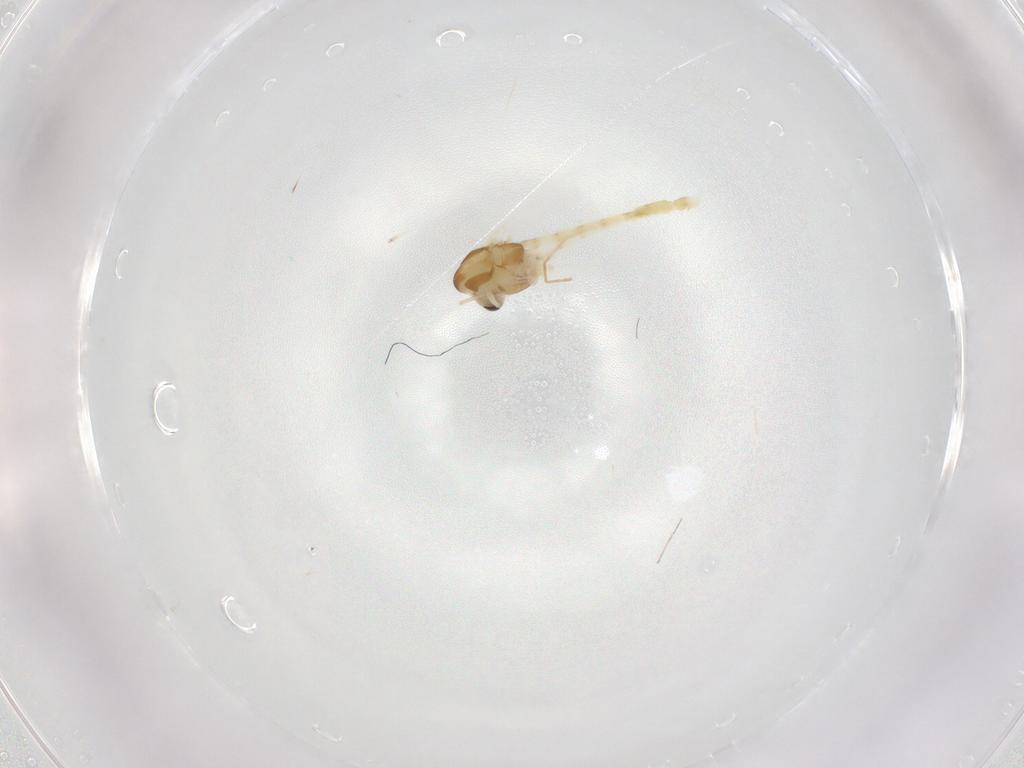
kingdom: Animalia
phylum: Arthropoda
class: Insecta
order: Diptera
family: Chironomidae
